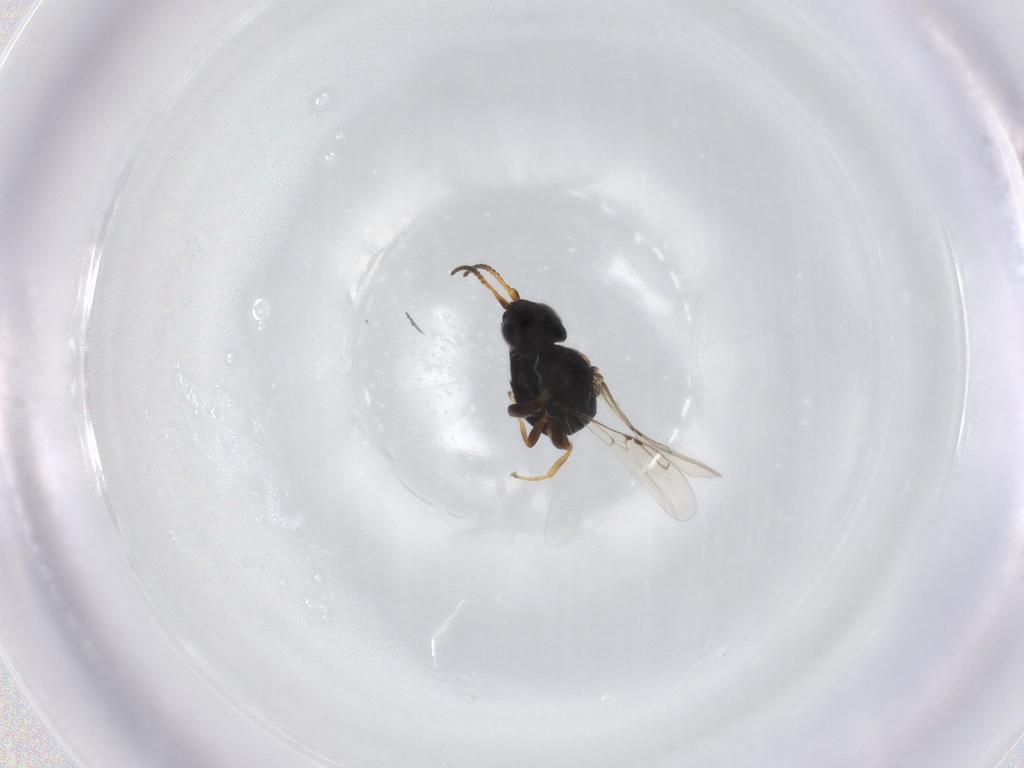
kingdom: Animalia
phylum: Arthropoda
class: Insecta
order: Hymenoptera
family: Bethylidae
